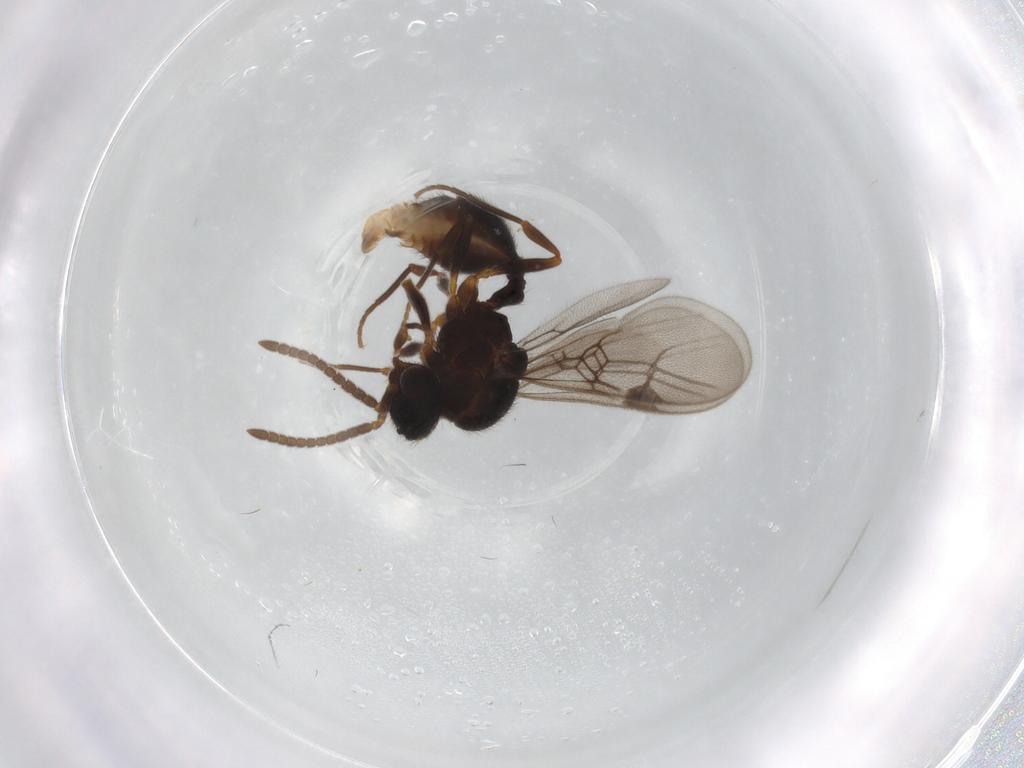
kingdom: Animalia
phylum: Arthropoda
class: Insecta
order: Hymenoptera
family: Formicidae
